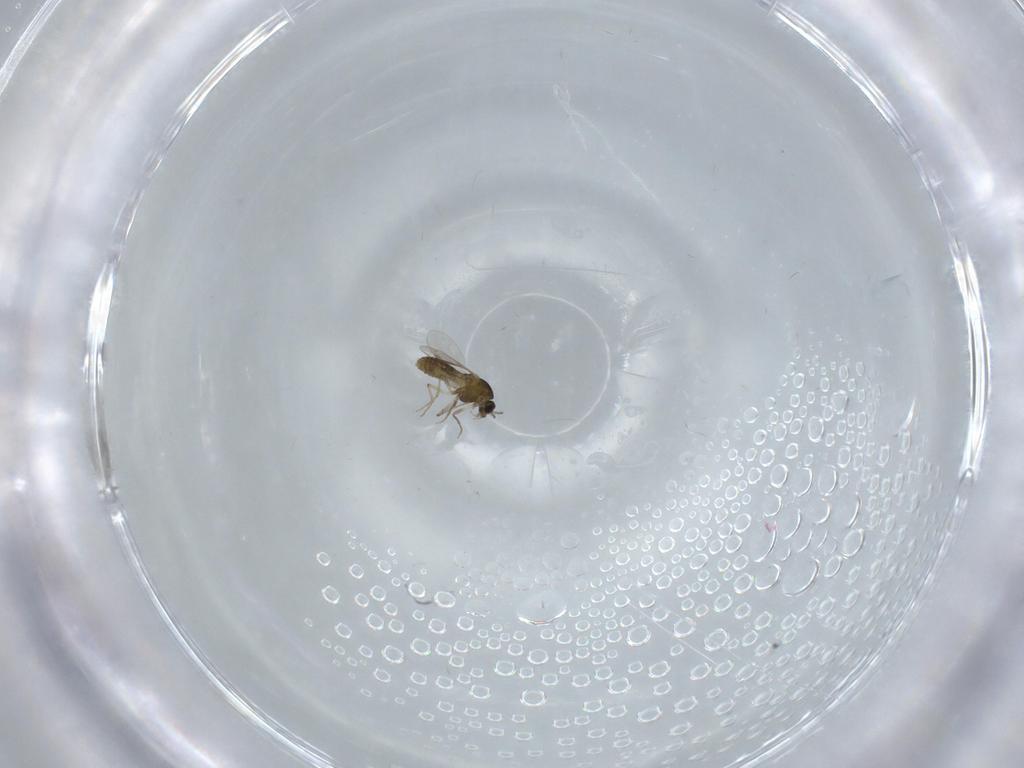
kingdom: Animalia
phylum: Arthropoda
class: Insecta
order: Diptera
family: Chironomidae
